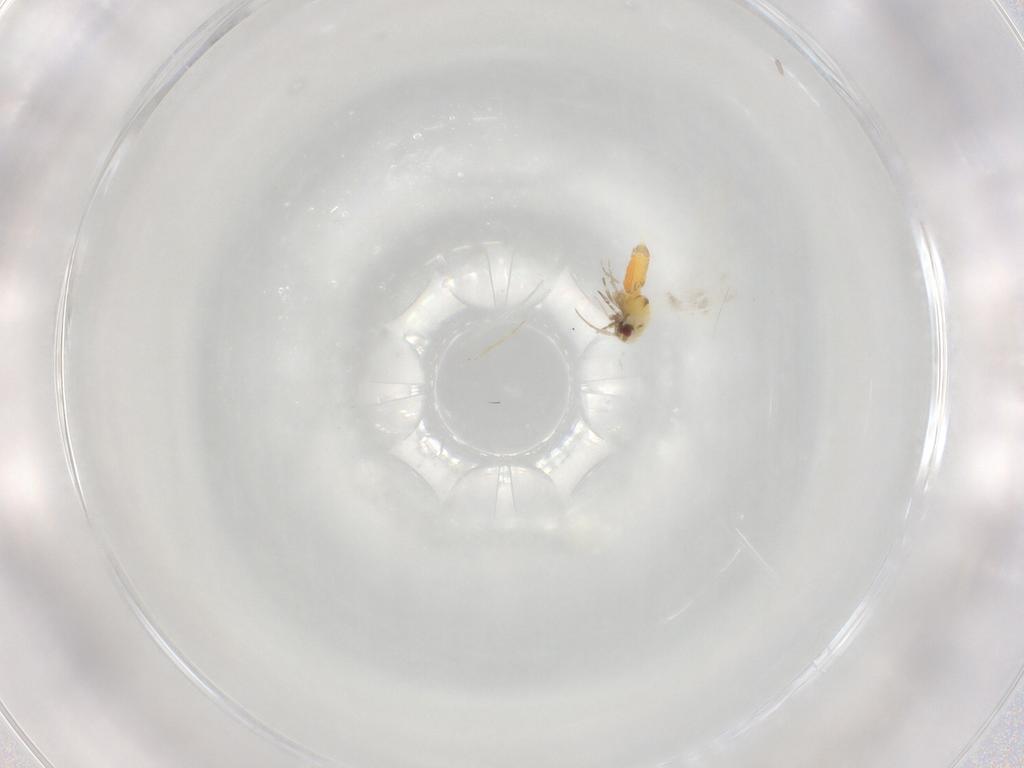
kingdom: Animalia
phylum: Arthropoda
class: Insecta
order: Hemiptera
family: Aleyrodidae
